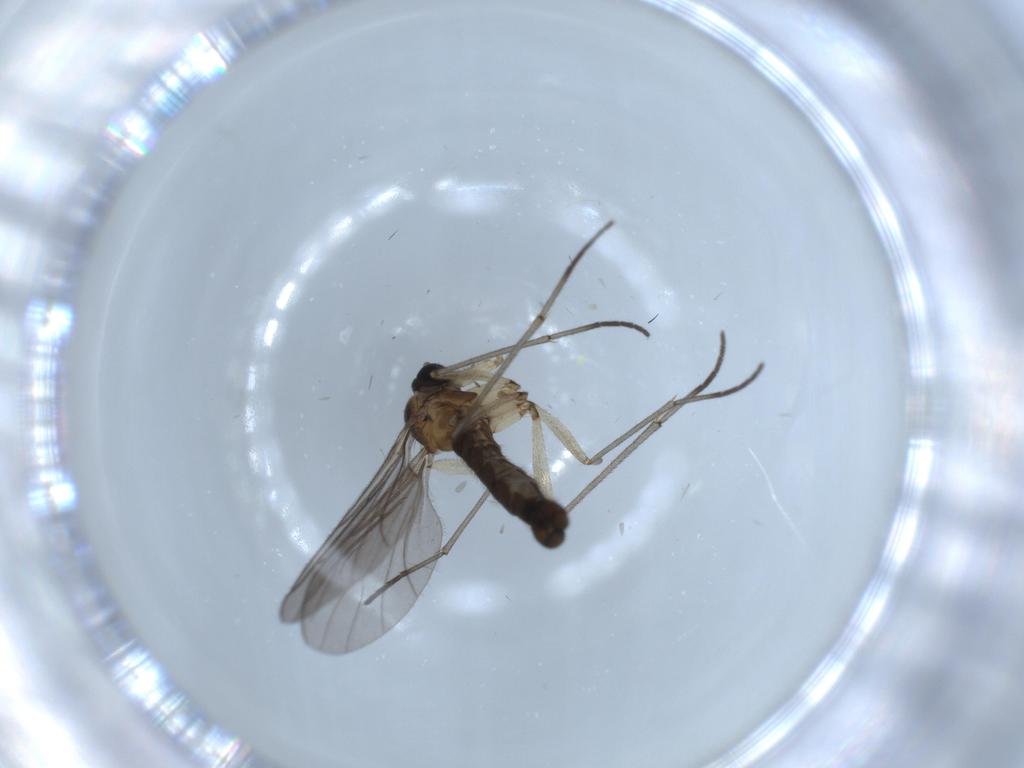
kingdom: Animalia
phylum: Arthropoda
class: Insecta
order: Diptera
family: Sciaridae
